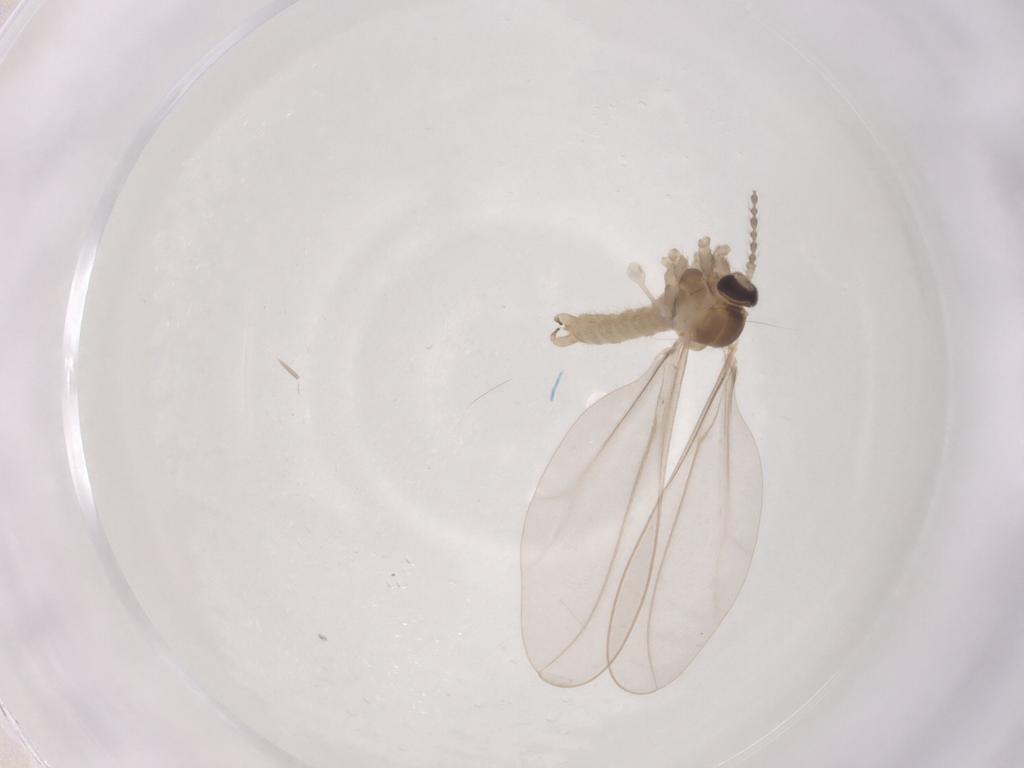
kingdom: Animalia
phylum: Arthropoda
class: Insecta
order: Diptera
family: Cecidomyiidae
